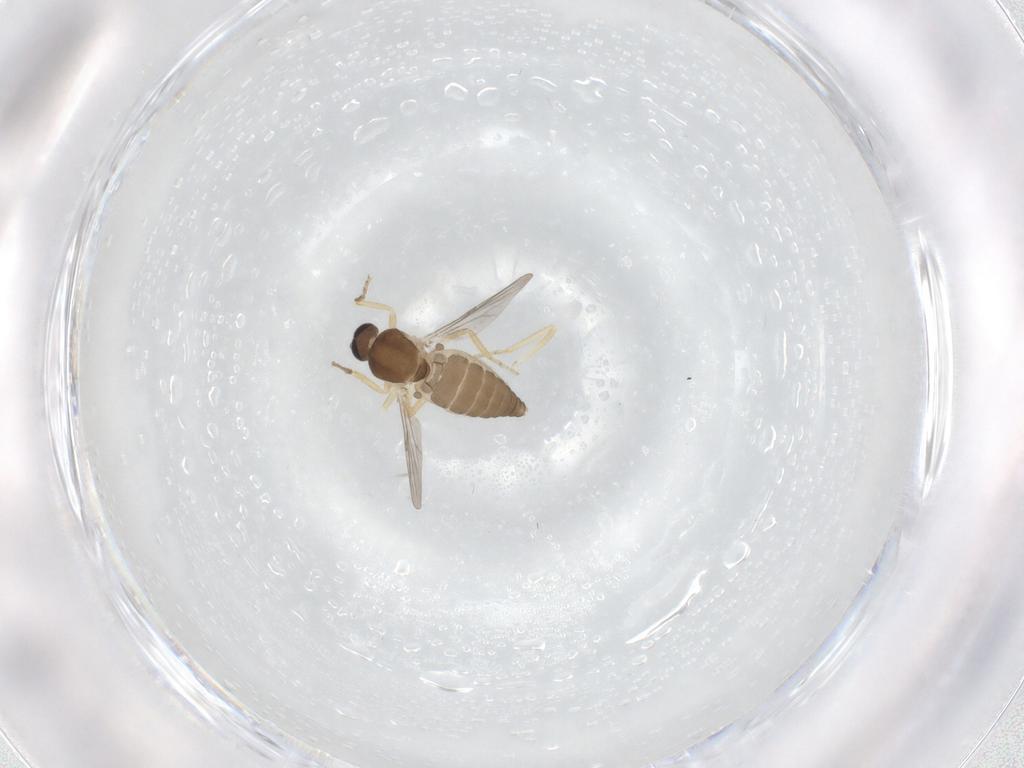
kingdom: Animalia
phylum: Arthropoda
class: Insecta
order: Diptera
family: Ceratopogonidae
